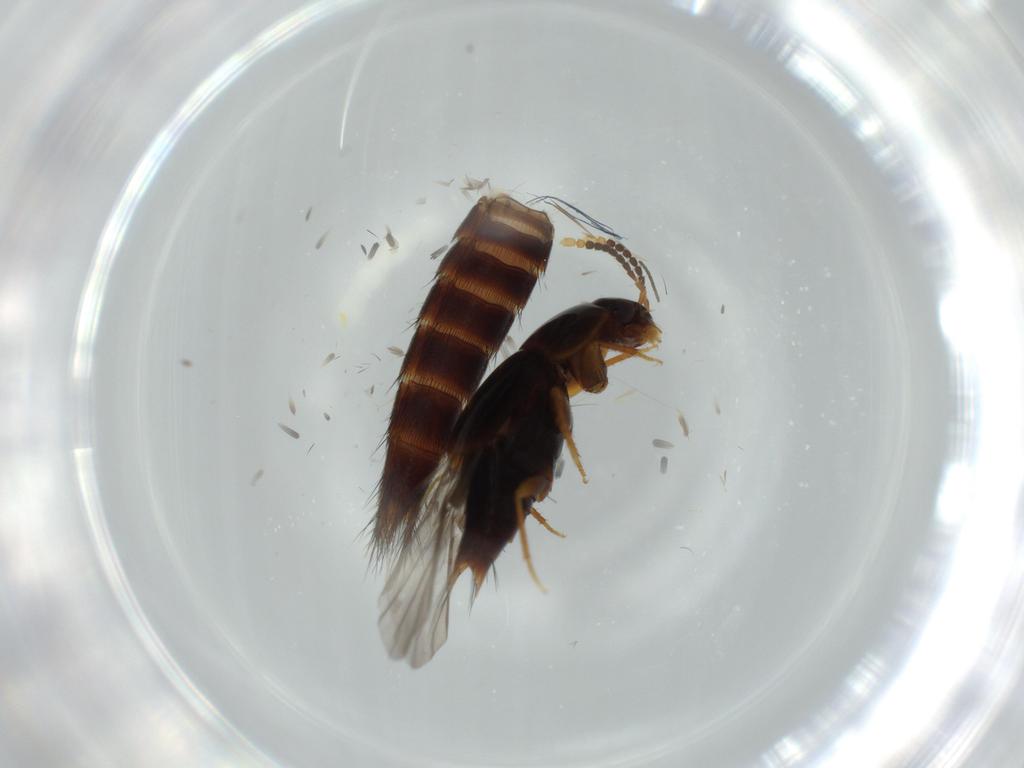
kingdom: Animalia
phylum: Arthropoda
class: Insecta
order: Coleoptera
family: Staphylinidae
